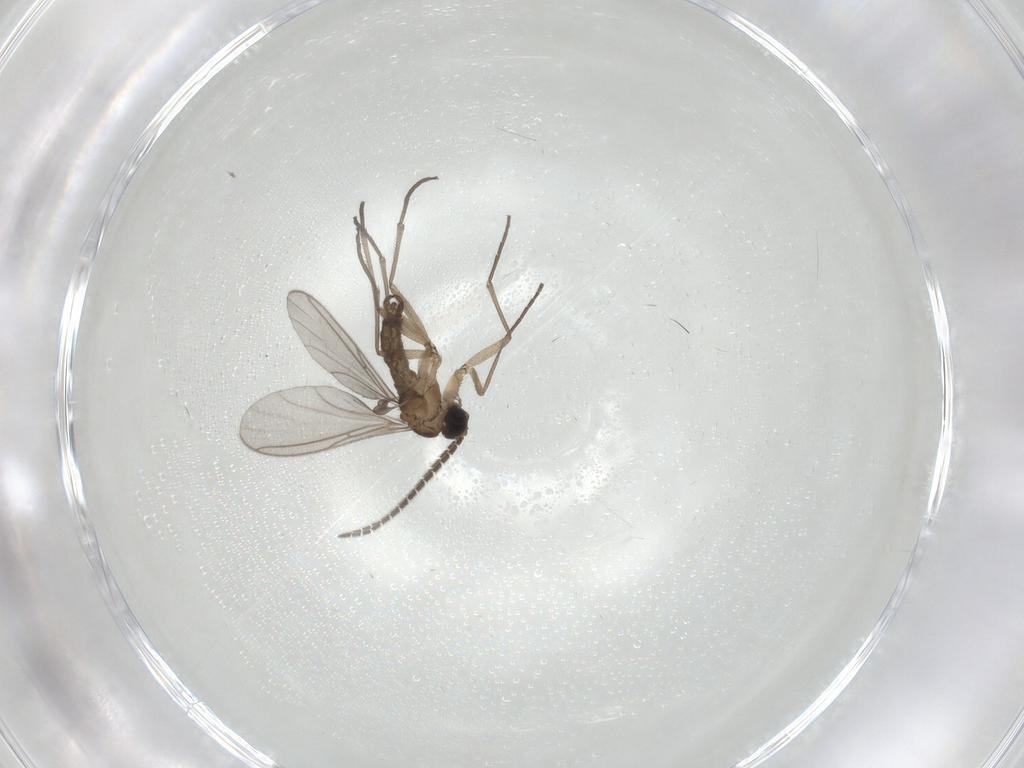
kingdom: Animalia
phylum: Arthropoda
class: Insecta
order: Diptera
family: Sciaridae
